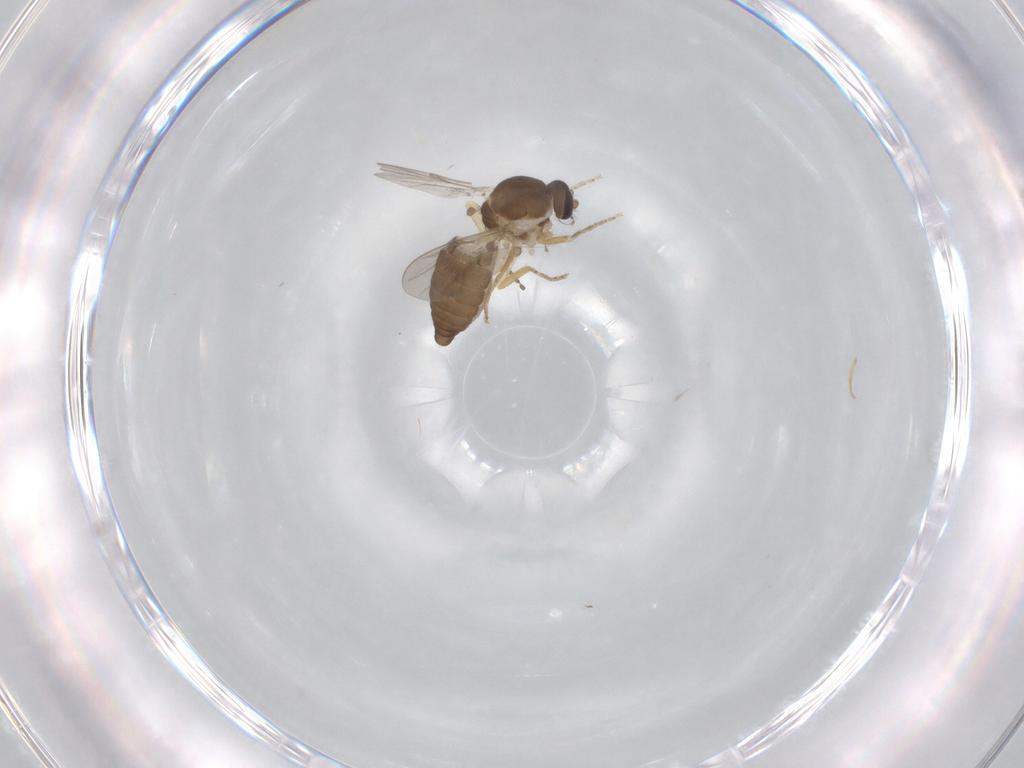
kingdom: Animalia
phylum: Arthropoda
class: Insecta
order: Diptera
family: Ceratopogonidae
